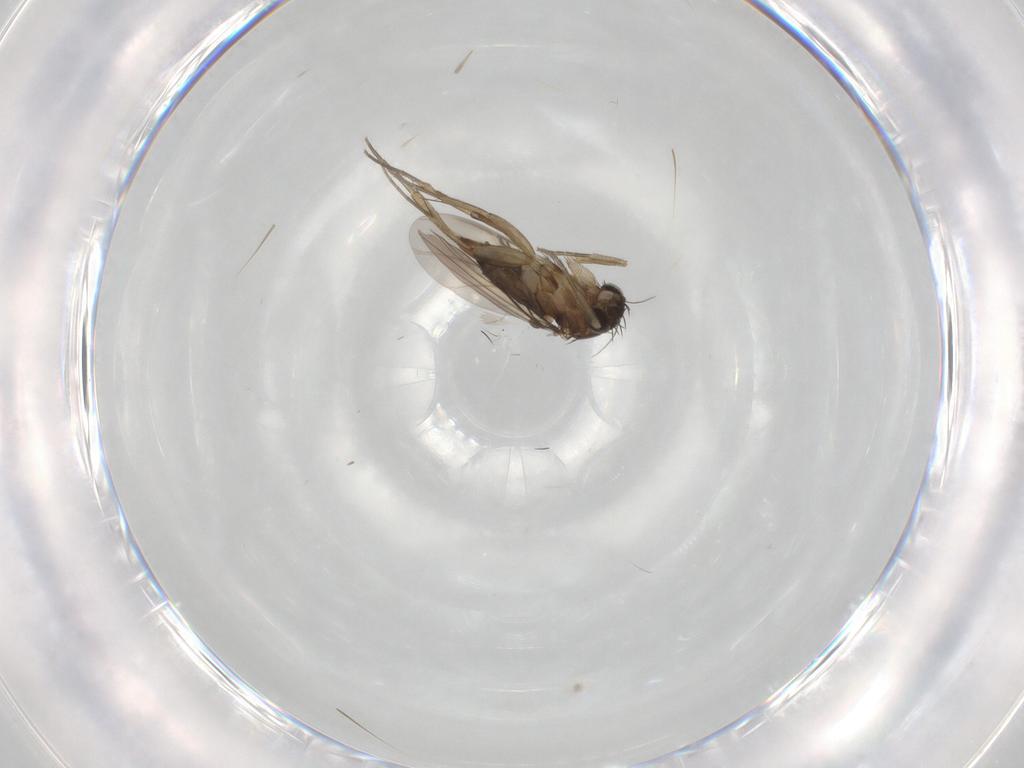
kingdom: Animalia
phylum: Arthropoda
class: Insecta
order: Diptera
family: Phoridae
